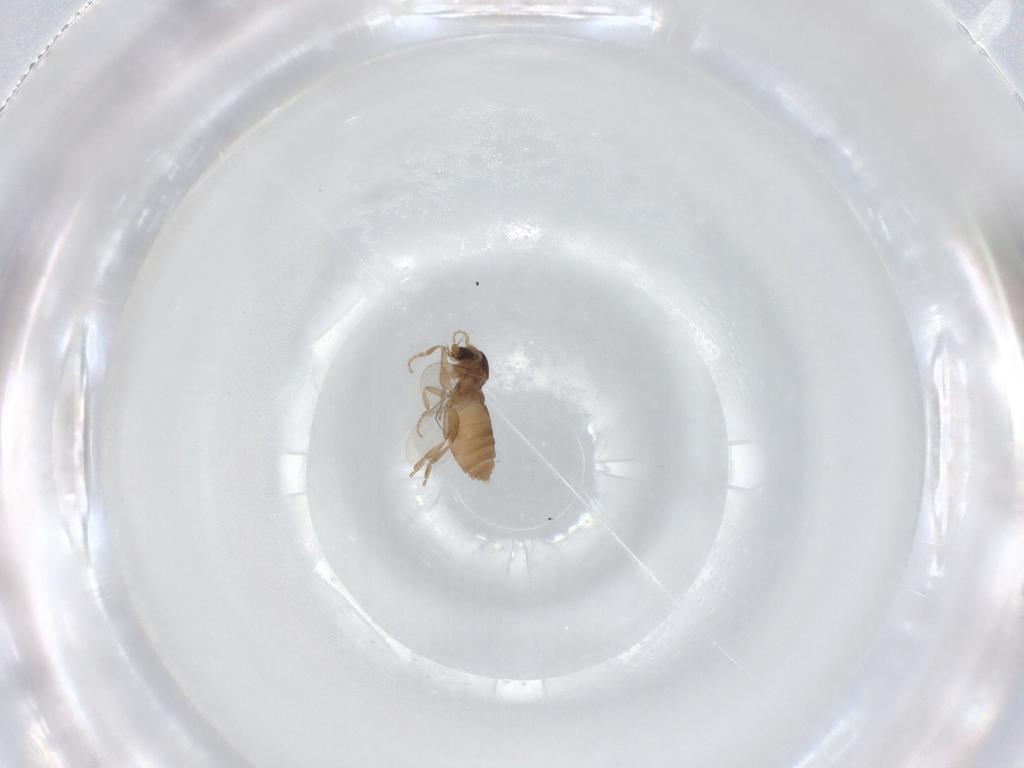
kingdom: Animalia
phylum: Arthropoda
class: Insecta
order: Diptera
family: Phoridae
